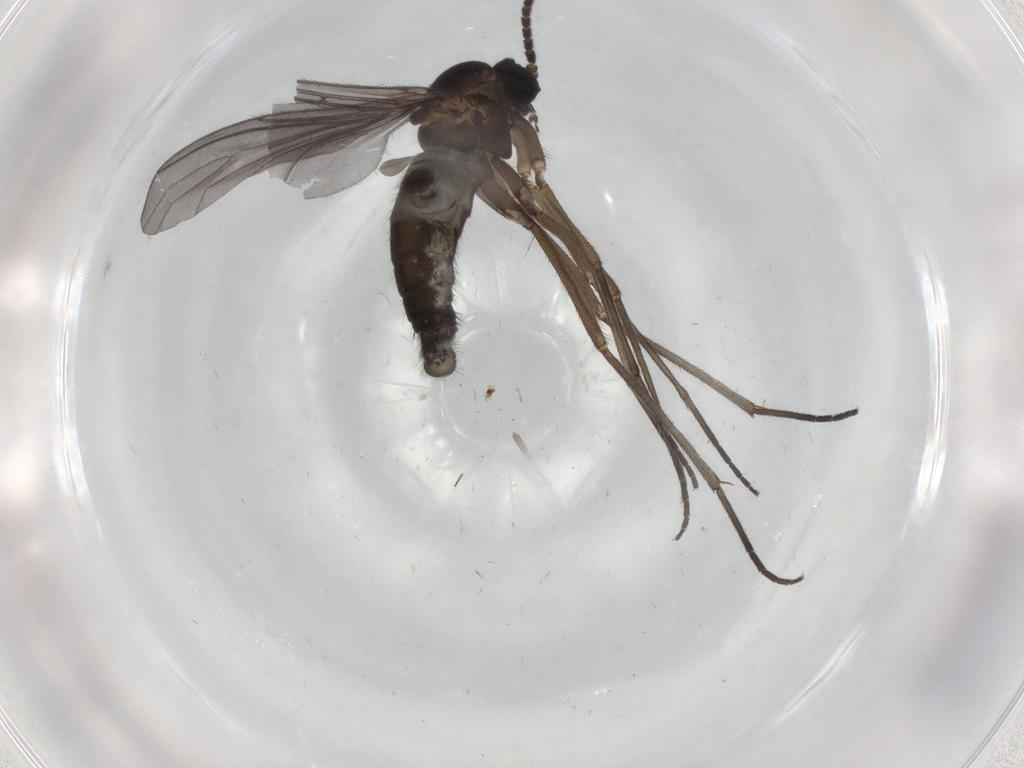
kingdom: Animalia
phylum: Arthropoda
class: Insecta
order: Diptera
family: Sciaridae
